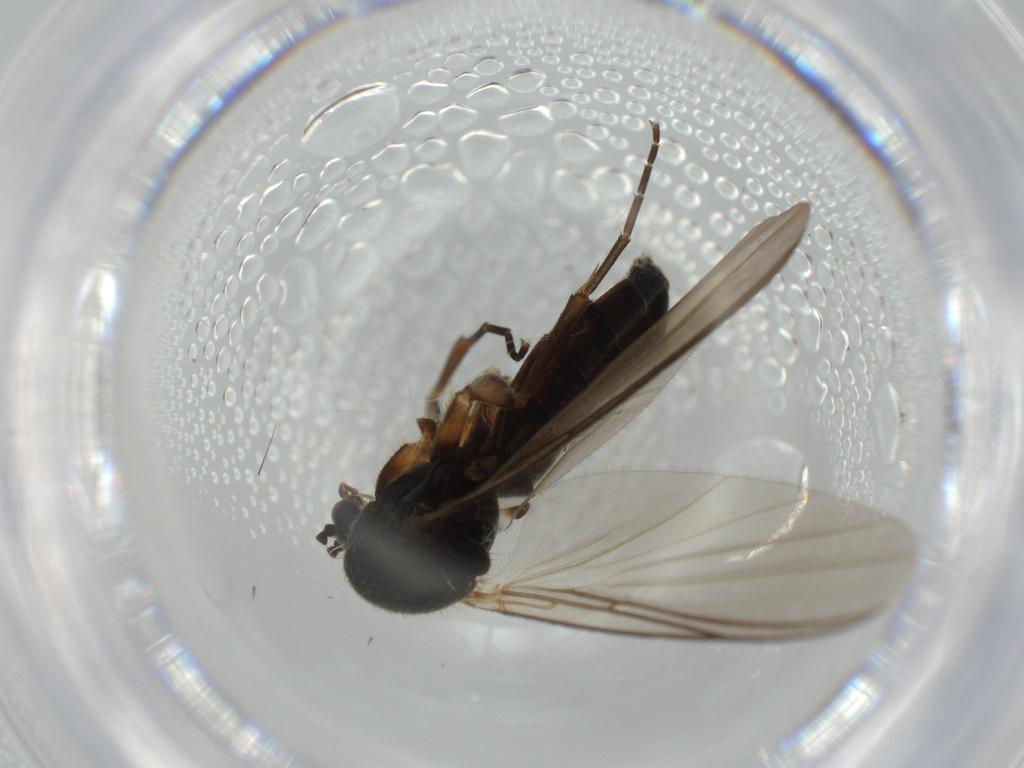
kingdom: Animalia
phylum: Arthropoda
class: Insecta
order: Diptera
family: Mycetophilidae
